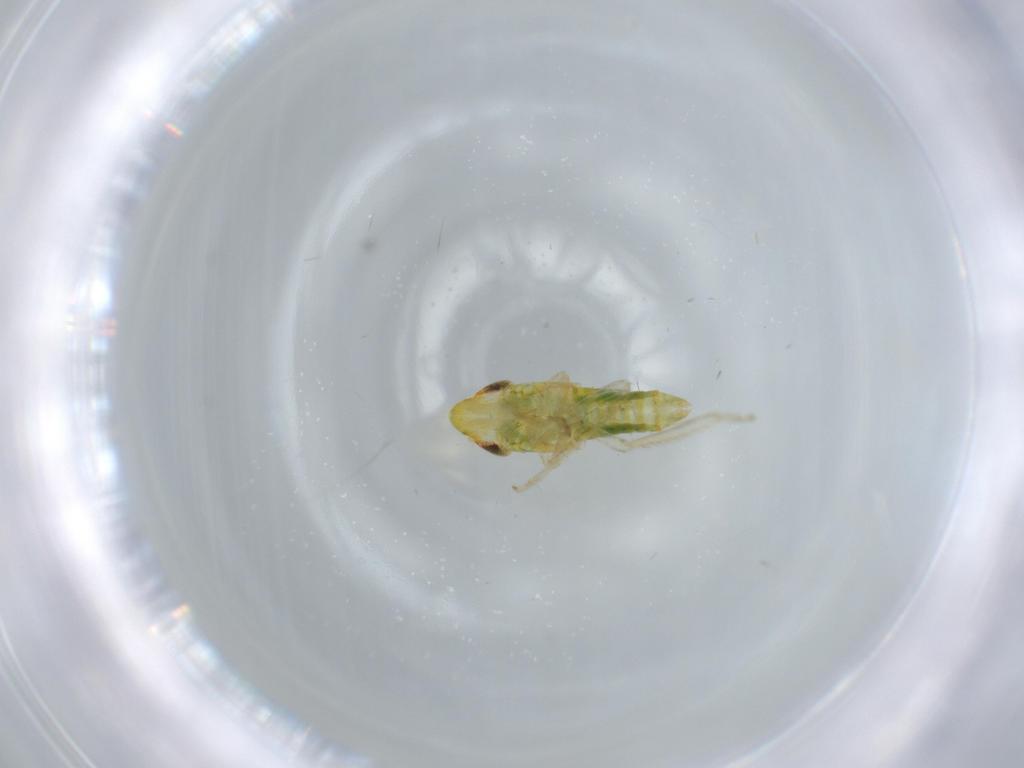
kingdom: Animalia
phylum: Arthropoda
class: Insecta
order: Hemiptera
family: Cicadellidae
